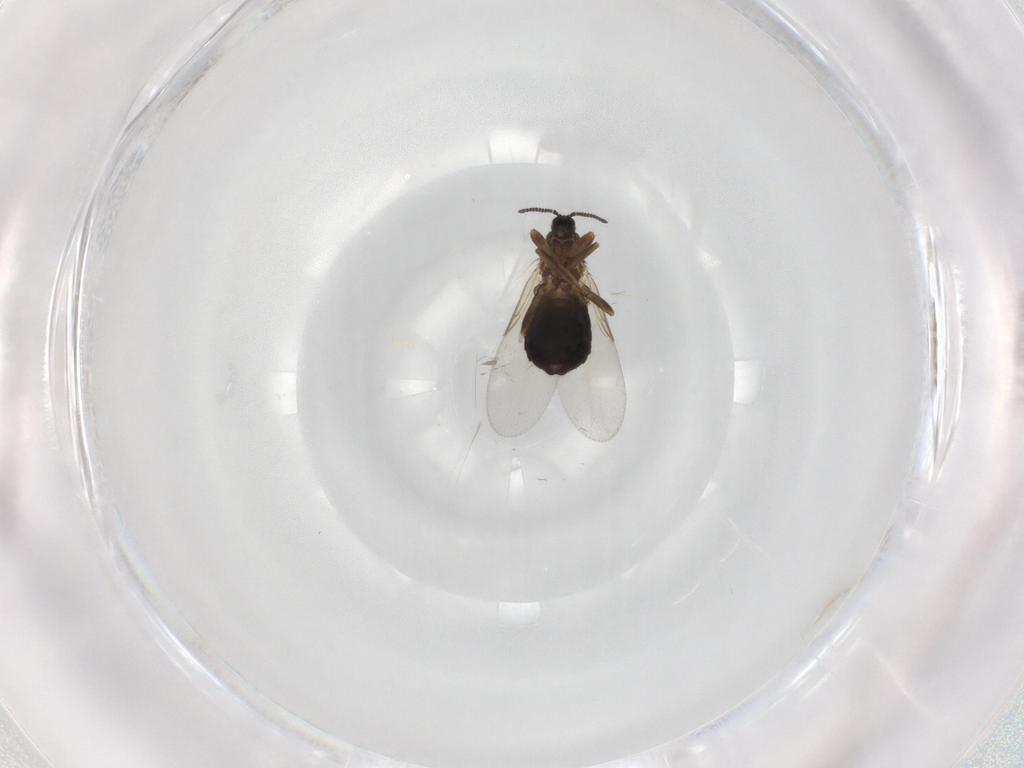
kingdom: Animalia
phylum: Arthropoda
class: Insecta
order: Diptera
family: Scatopsidae
